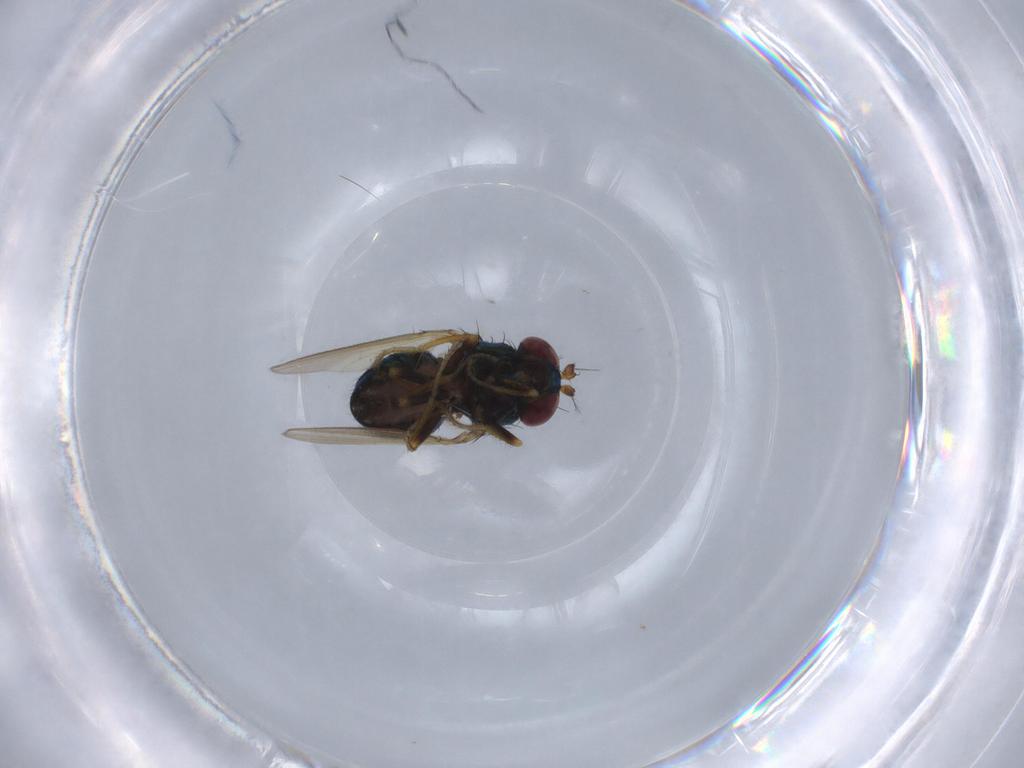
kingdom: Animalia
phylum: Arthropoda
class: Insecta
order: Diptera
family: Ephydridae
